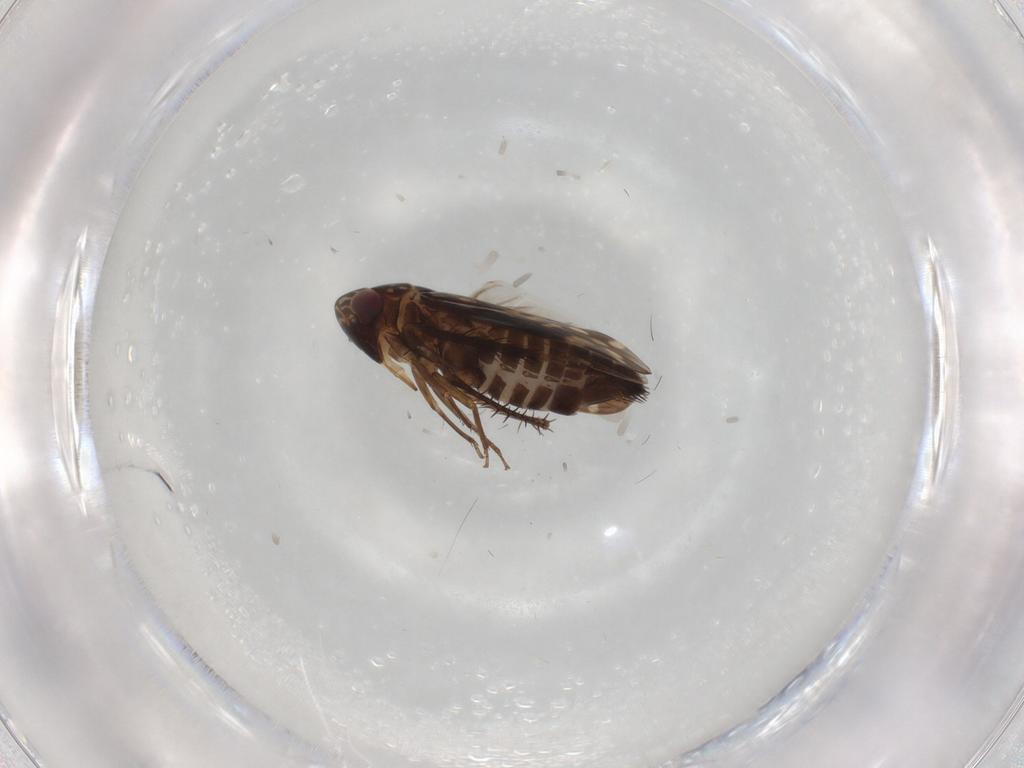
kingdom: Animalia
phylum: Arthropoda
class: Insecta
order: Hemiptera
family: Cicadellidae
